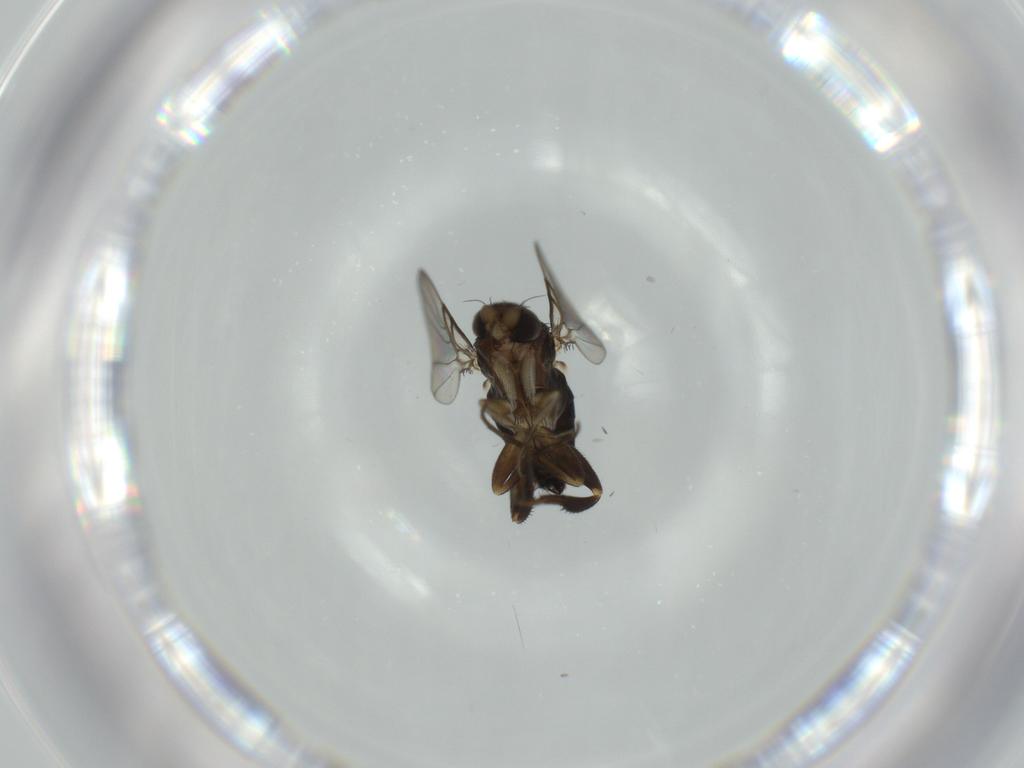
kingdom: Animalia
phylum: Arthropoda
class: Insecta
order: Diptera
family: Phoridae
